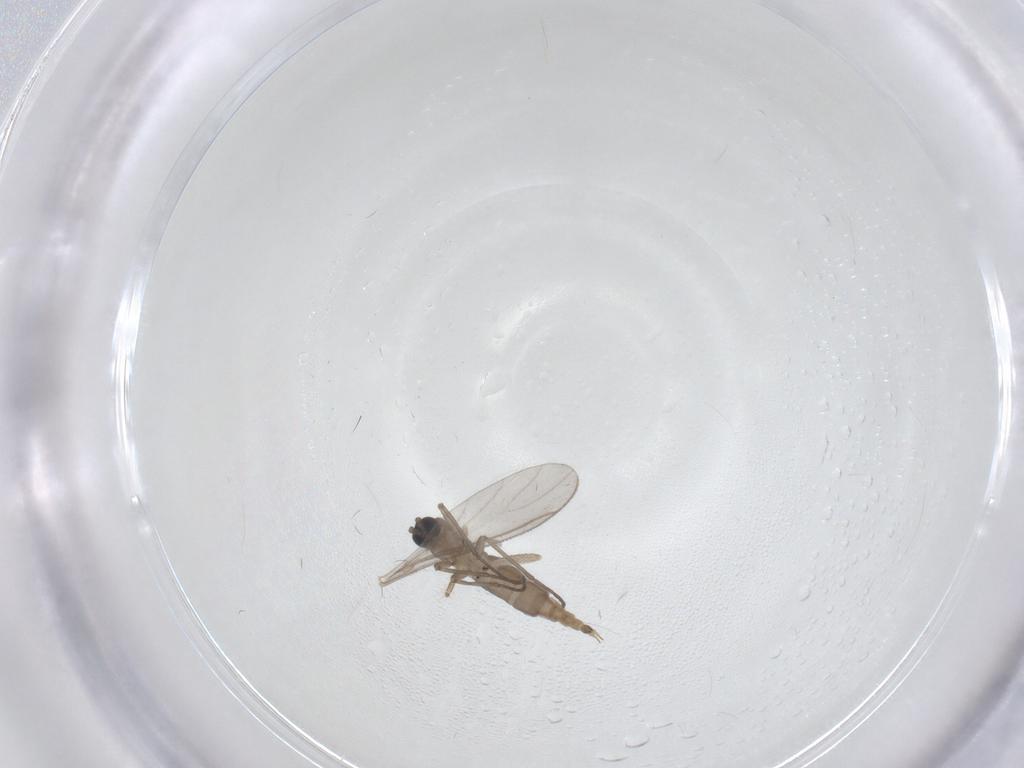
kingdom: Animalia
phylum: Arthropoda
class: Insecta
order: Diptera
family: Sciaridae
